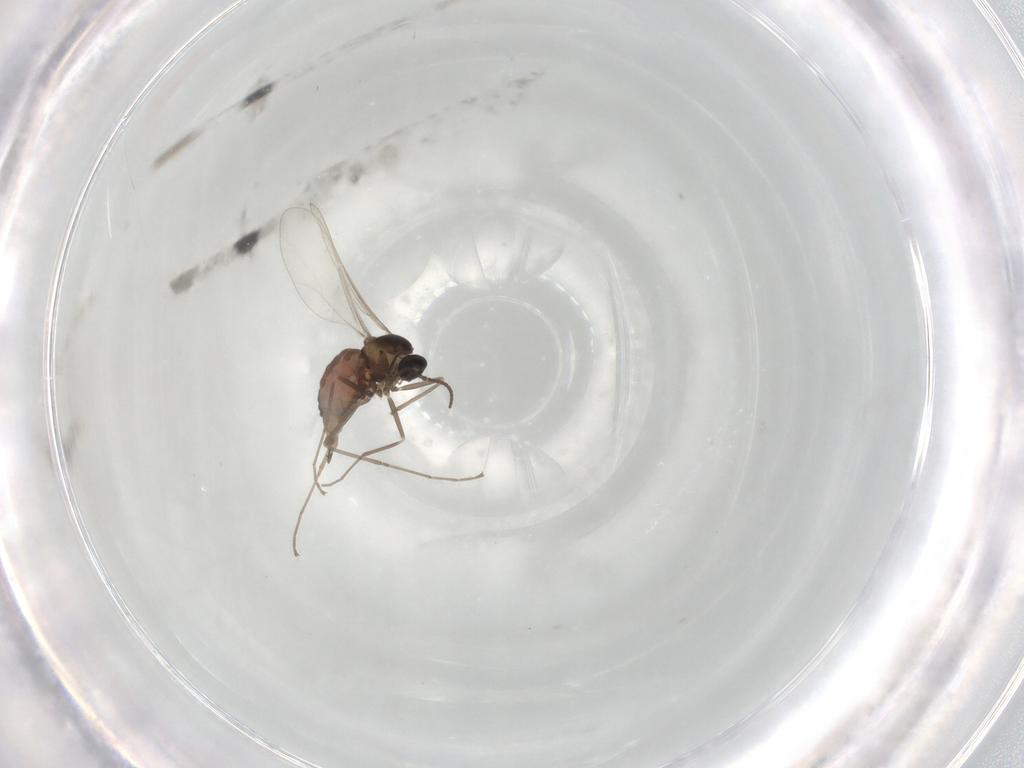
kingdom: Animalia
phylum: Arthropoda
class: Insecta
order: Diptera
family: Cecidomyiidae
